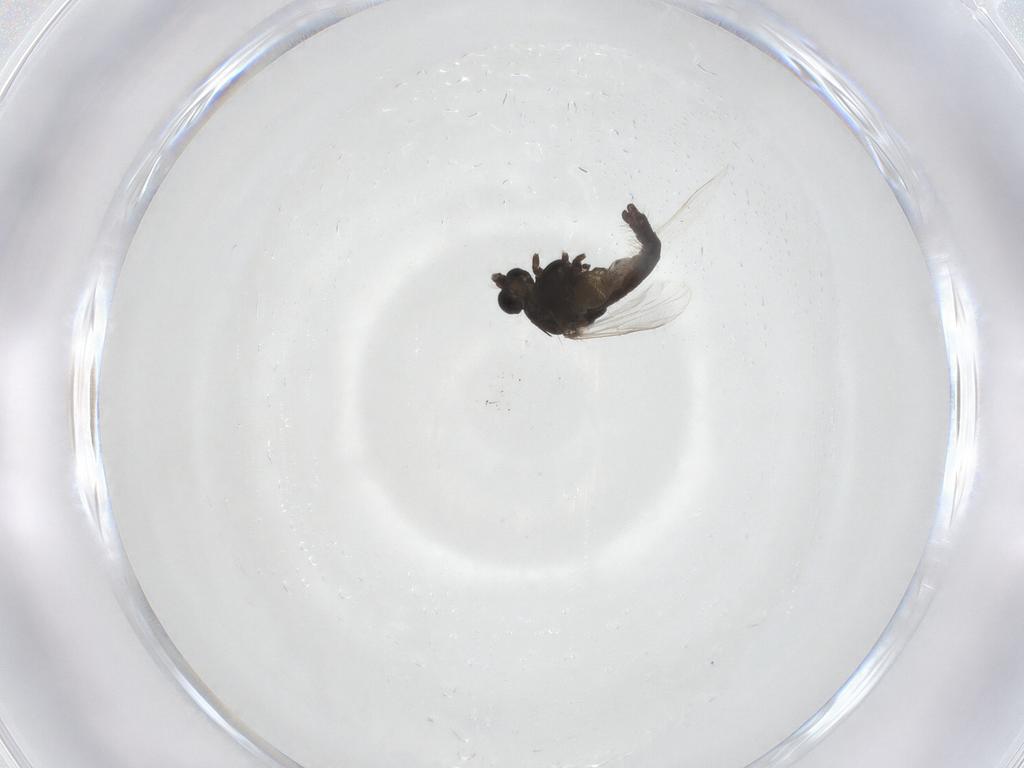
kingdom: Animalia
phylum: Arthropoda
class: Insecta
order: Diptera
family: Chironomidae
